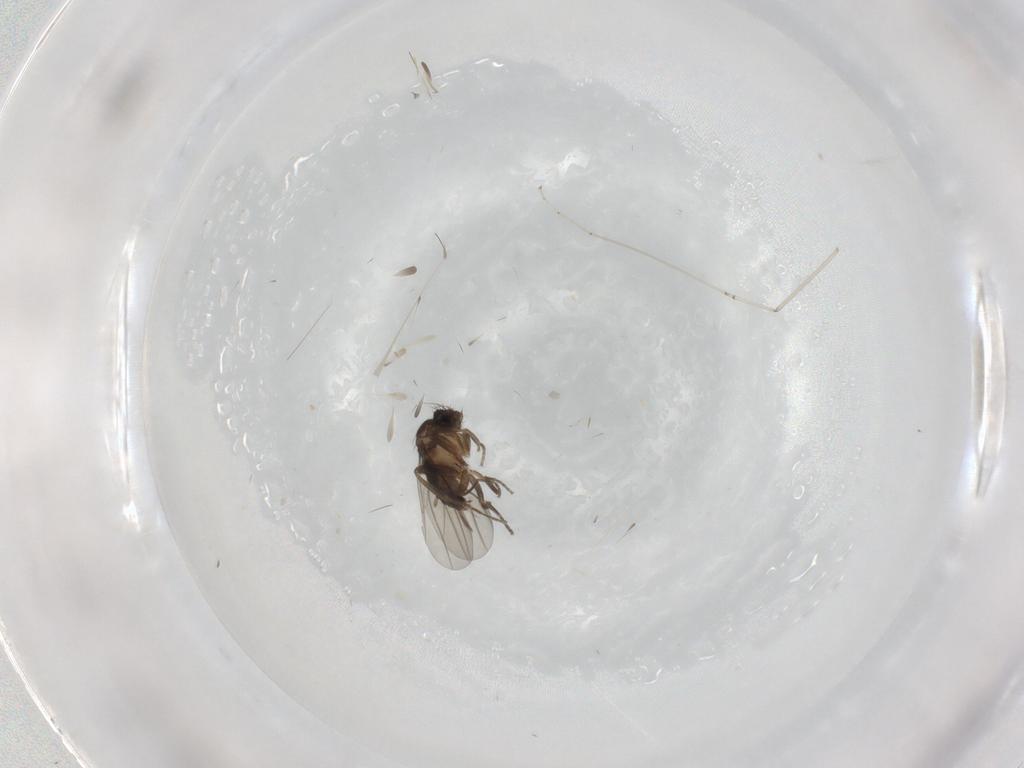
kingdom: Animalia
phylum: Arthropoda
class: Insecta
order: Diptera
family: Phoridae
